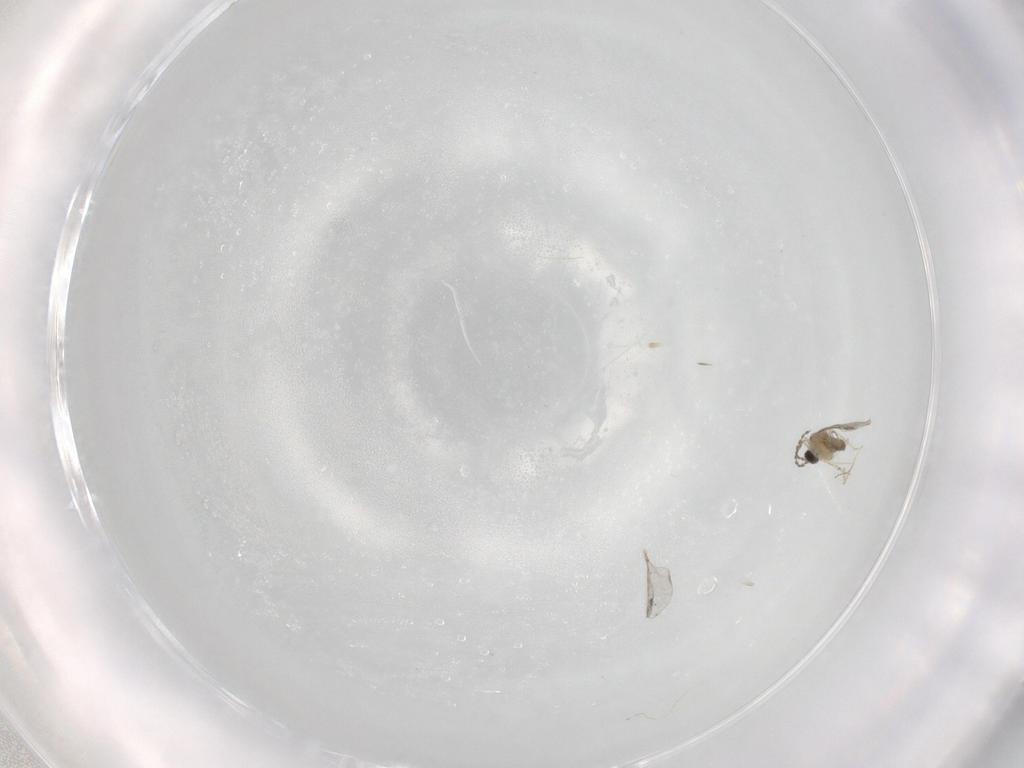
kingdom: Animalia
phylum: Arthropoda
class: Insecta
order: Diptera
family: Cecidomyiidae
